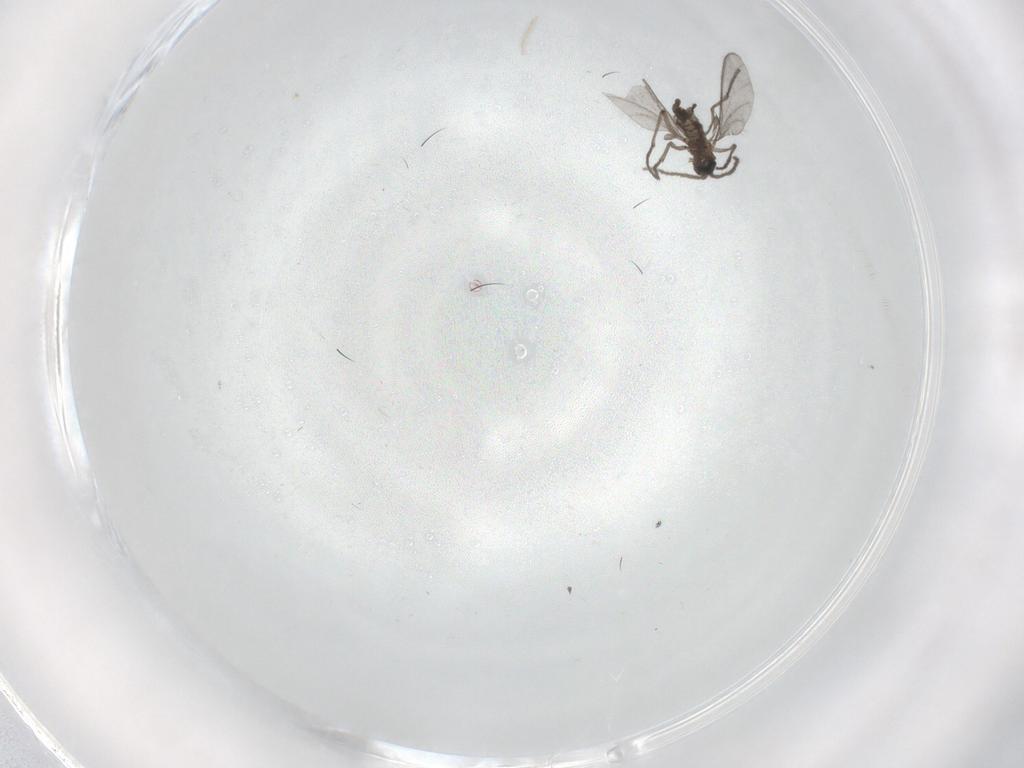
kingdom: Animalia
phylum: Arthropoda
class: Insecta
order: Diptera
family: Sciaridae
